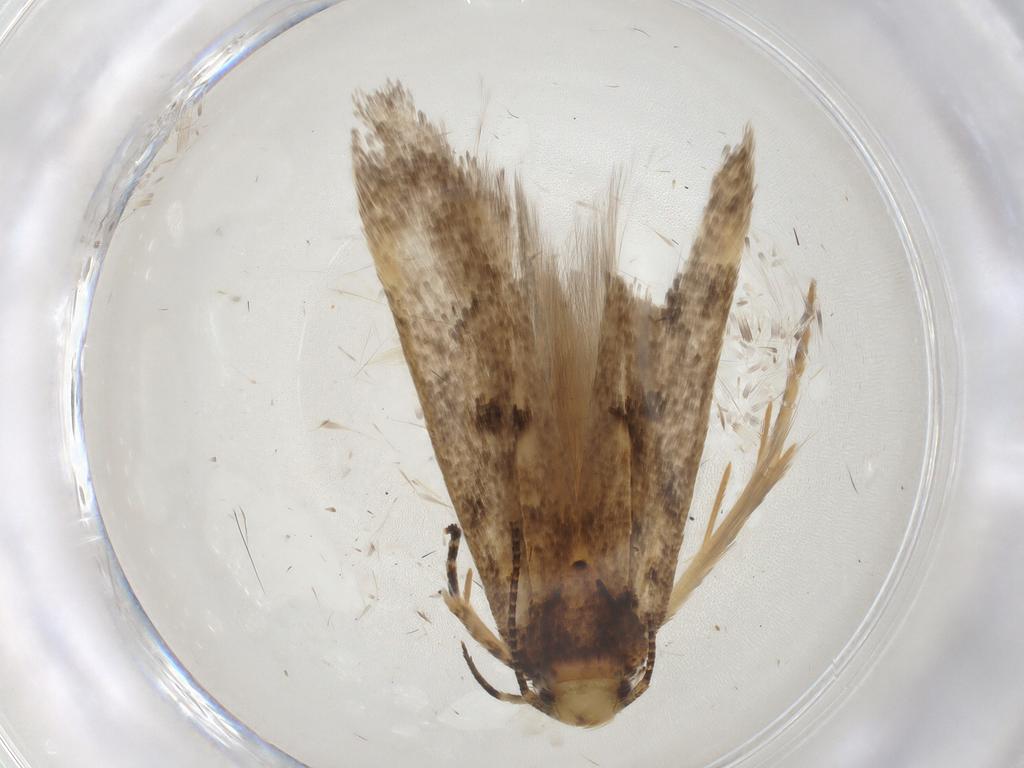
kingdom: Animalia
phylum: Arthropoda
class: Insecta
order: Lepidoptera
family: Gelechiidae
